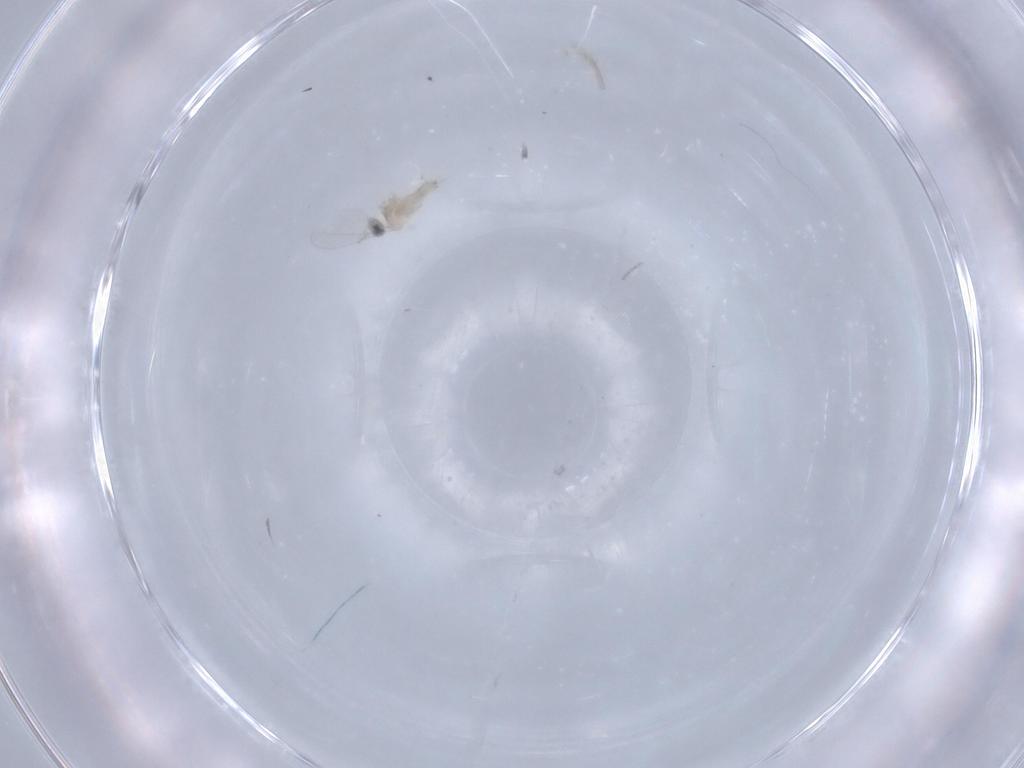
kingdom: Animalia
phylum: Arthropoda
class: Insecta
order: Diptera
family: Cecidomyiidae
